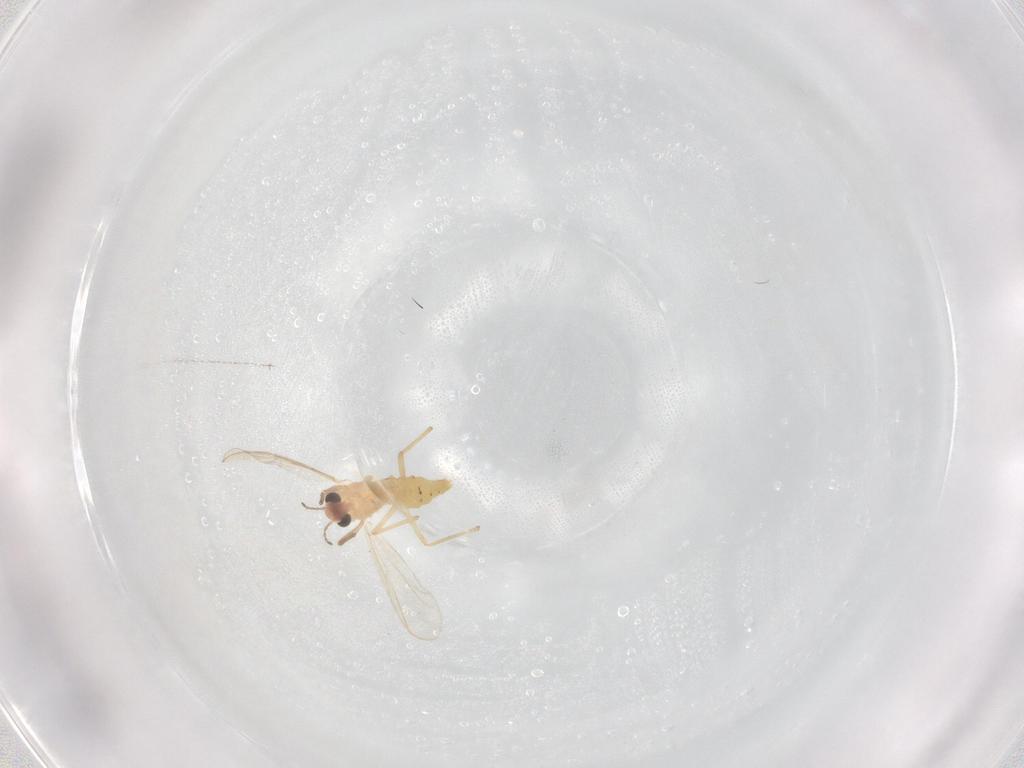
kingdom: Animalia
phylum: Arthropoda
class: Insecta
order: Diptera
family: Chironomidae
